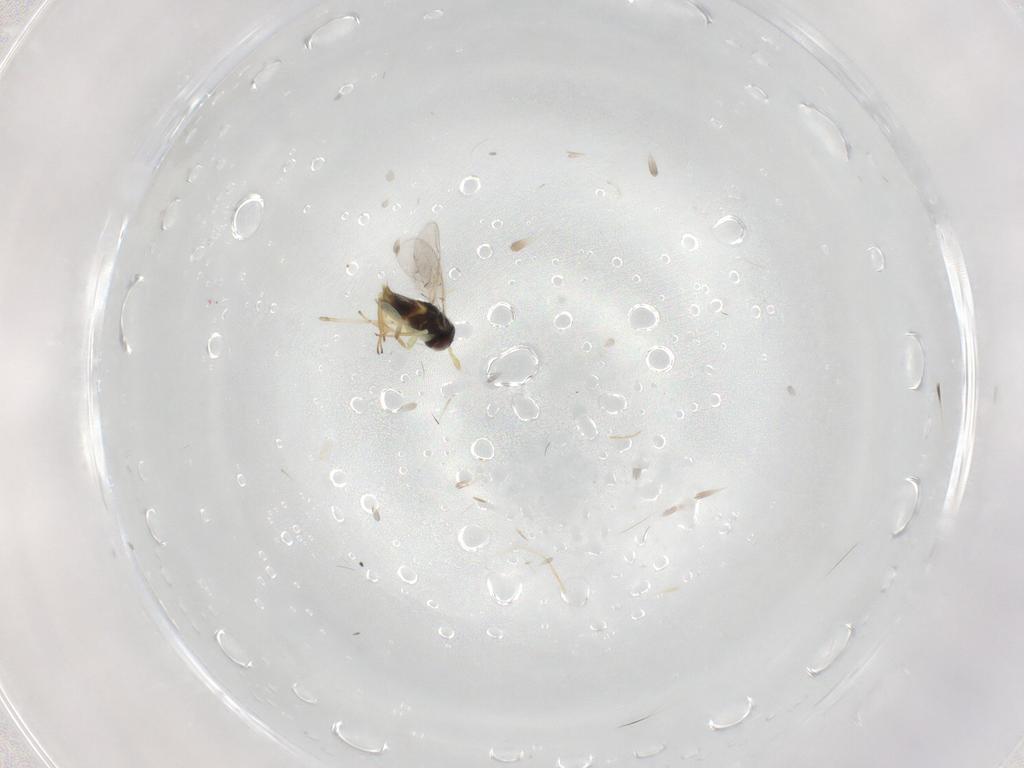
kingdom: Animalia
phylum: Arthropoda
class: Insecta
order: Hymenoptera
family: Aphelinidae
